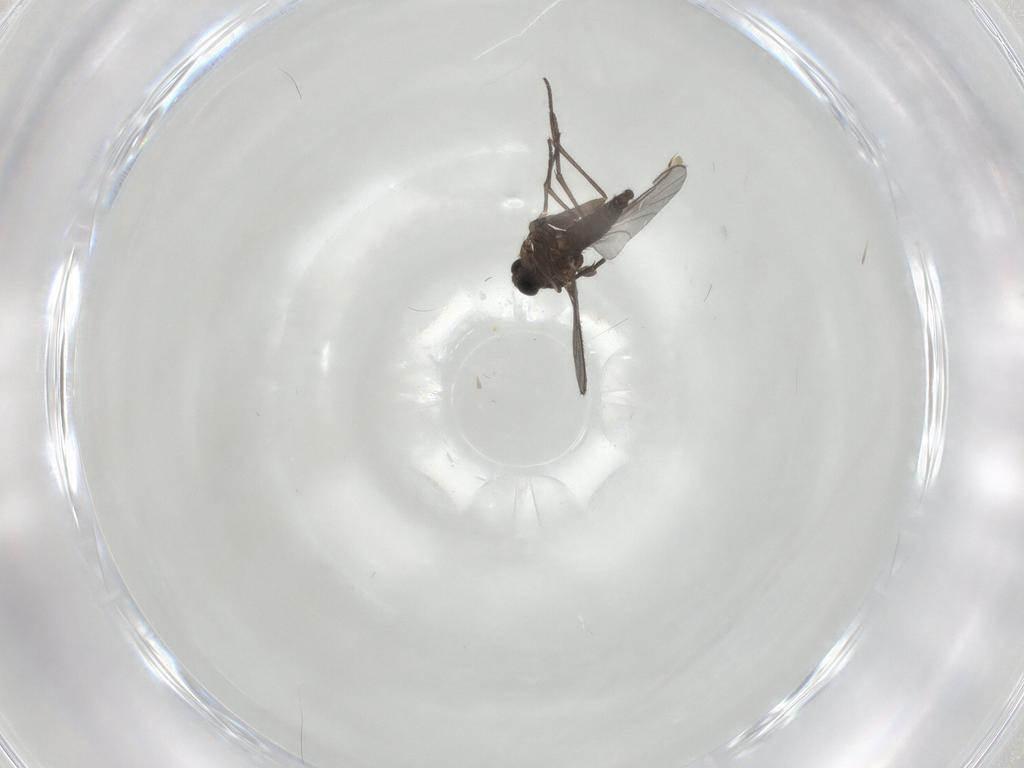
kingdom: Animalia
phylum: Arthropoda
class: Insecta
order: Diptera
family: Sciaridae
